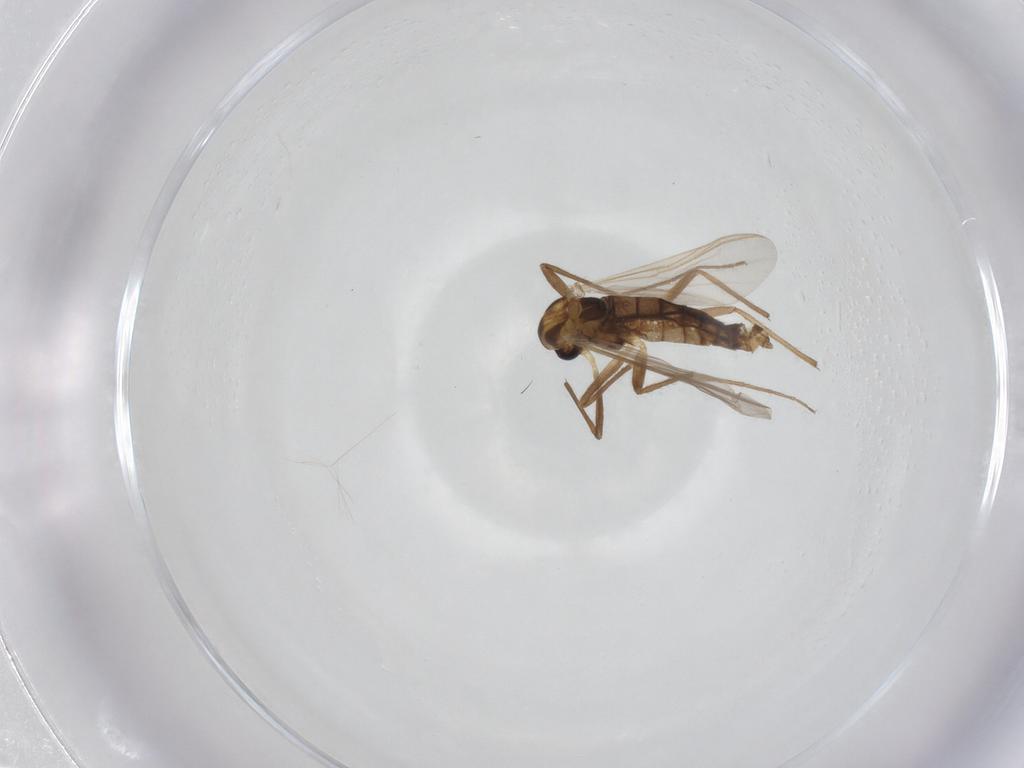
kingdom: Animalia
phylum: Arthropoda
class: Insecta
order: Diptera
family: Chironomidae
